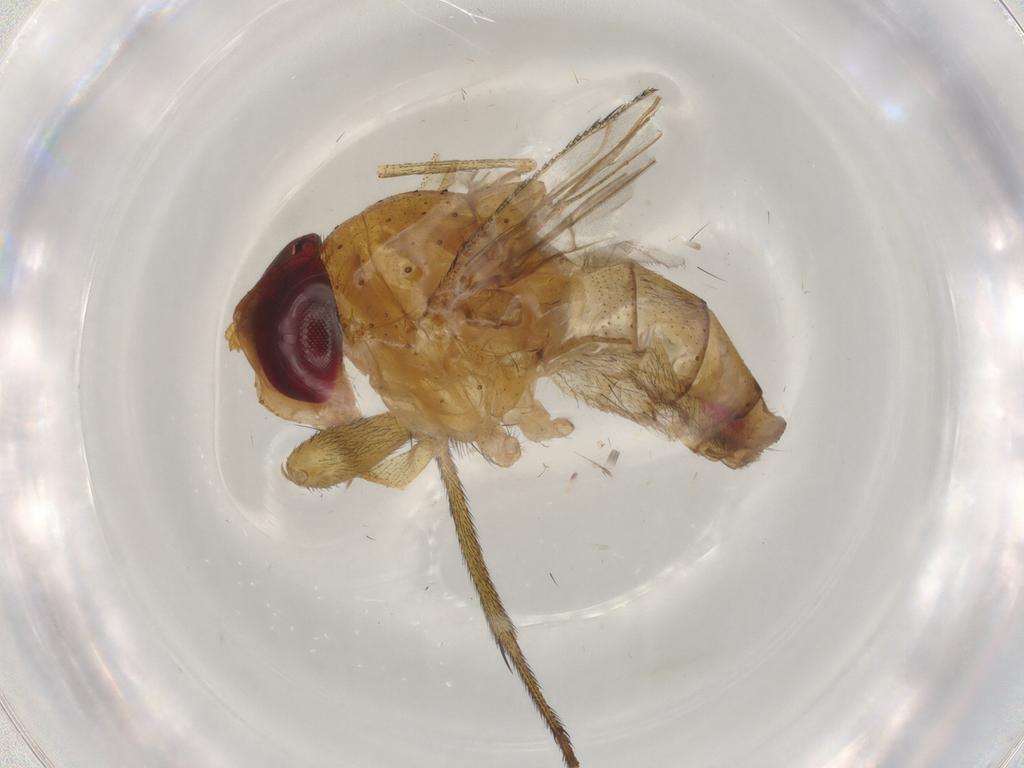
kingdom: Animalia
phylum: Arthropoda
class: Insecta
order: Diptera
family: Calliphoridae
